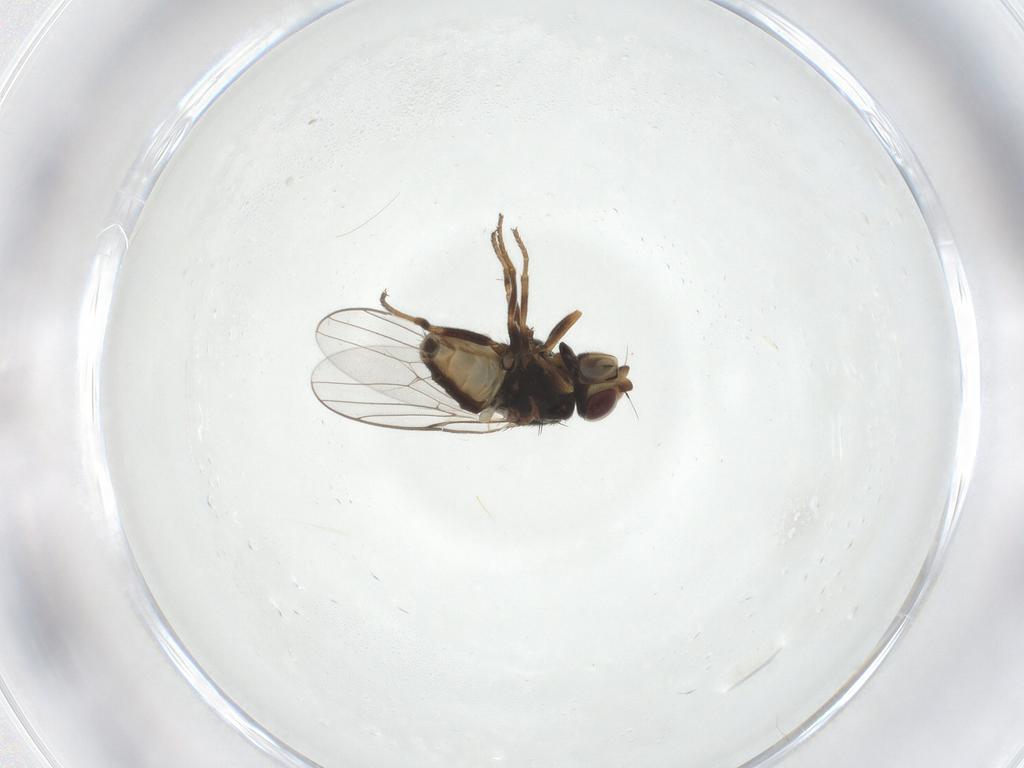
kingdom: Animalia
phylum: Arthropoda
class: Insecta
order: Diptera
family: Chloropidae
